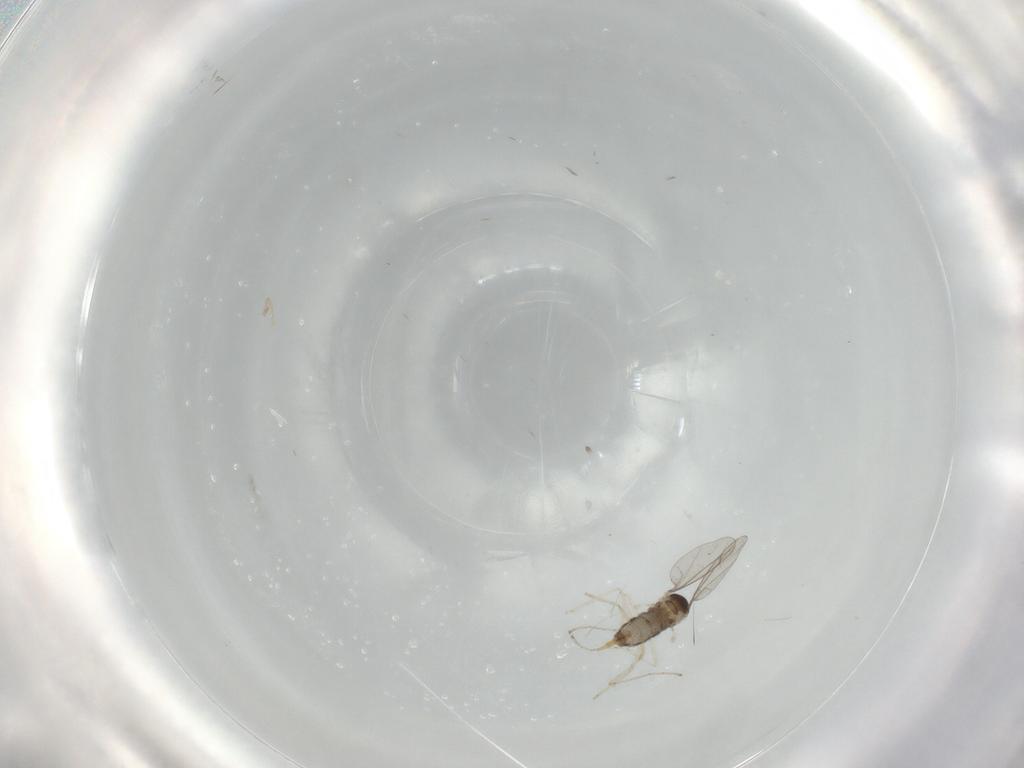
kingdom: Animalia
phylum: Arthropoda
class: Insecta
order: Diptera
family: Cecidomyiidae
